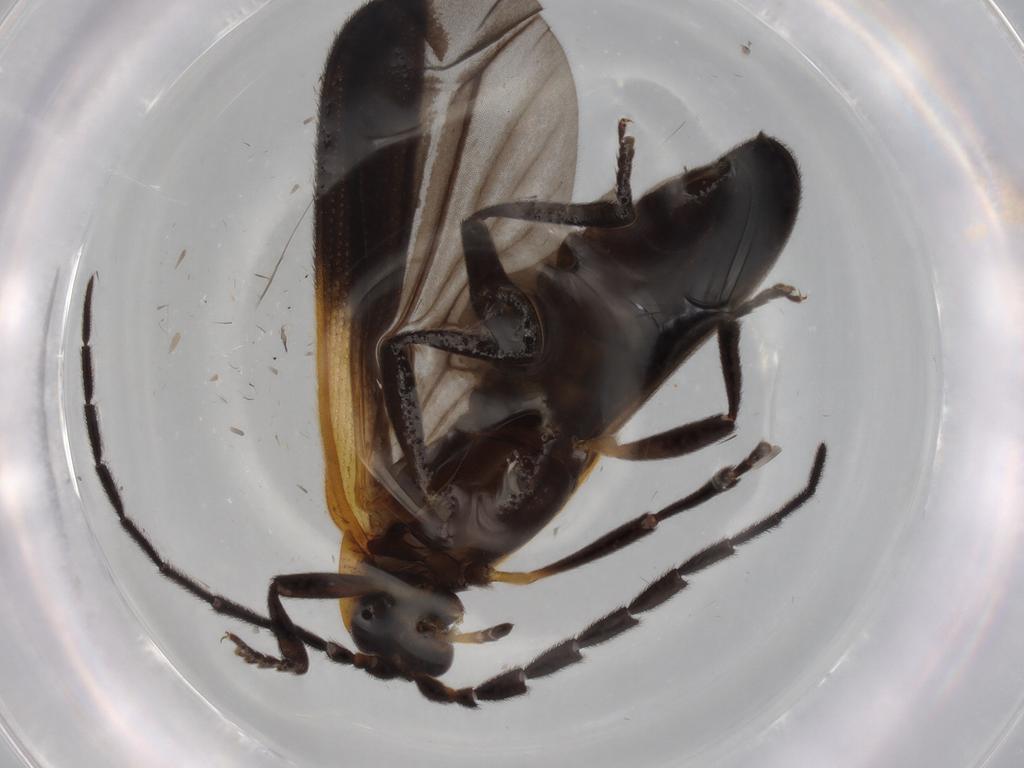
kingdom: Animalia
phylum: Arthropoda
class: Insecta
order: Coleoptera
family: Lycidae
